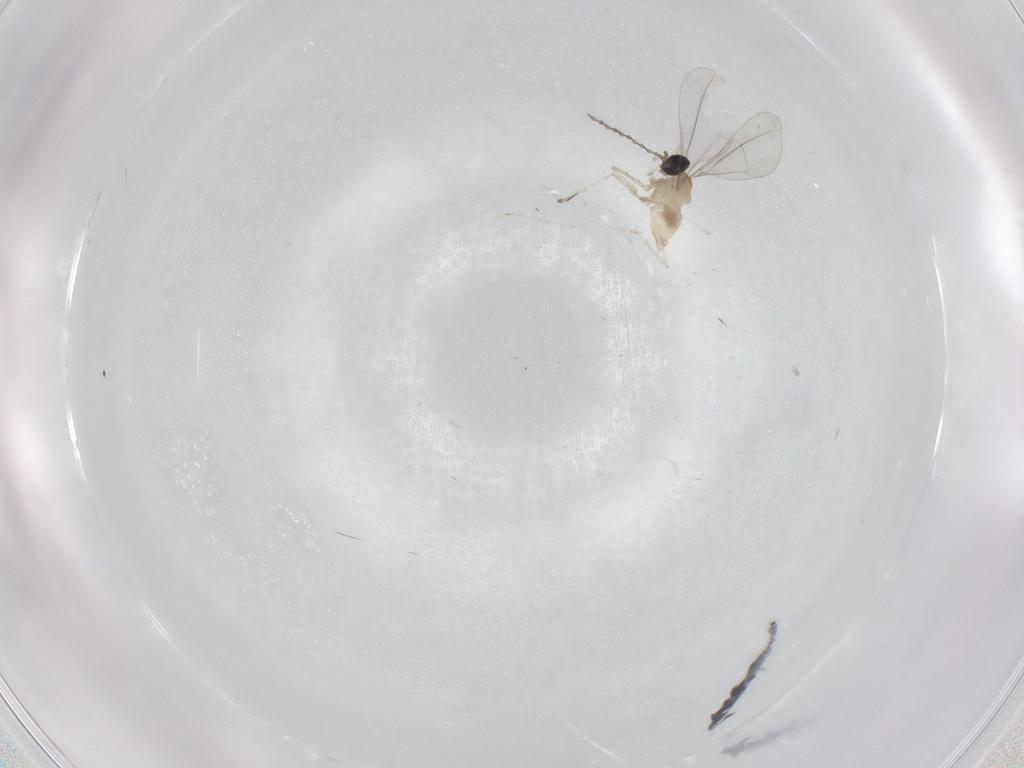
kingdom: Animalia
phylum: Arthropoda
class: Insecta
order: Diptera
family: Cecidomyiidae
